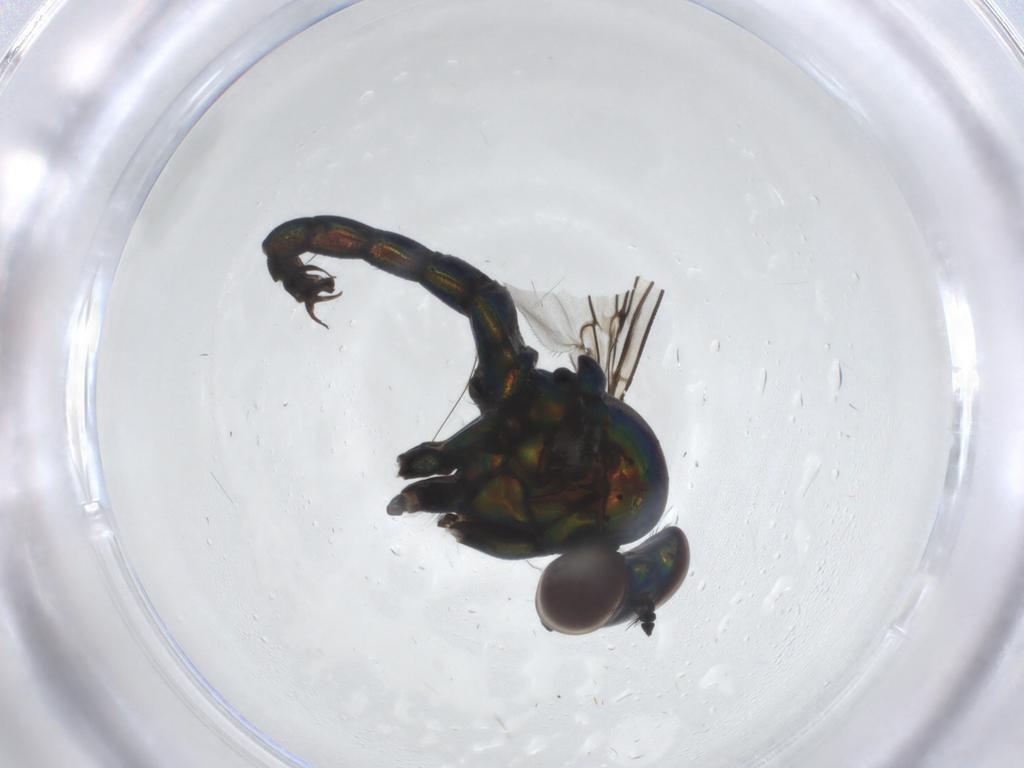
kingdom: Animalia
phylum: Arthropoda
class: Insecta
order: Diptera
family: Dolichopodidae
